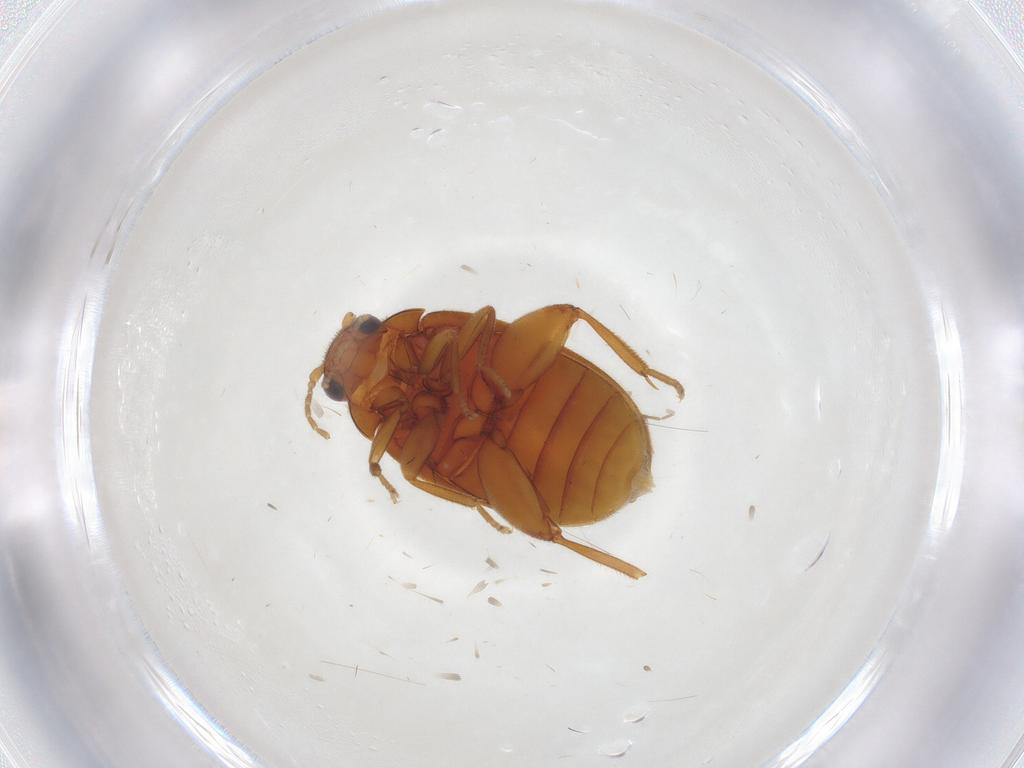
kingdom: Animalia
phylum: Arthropoda
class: Insecta
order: Coleoptera
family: Scirtidae
